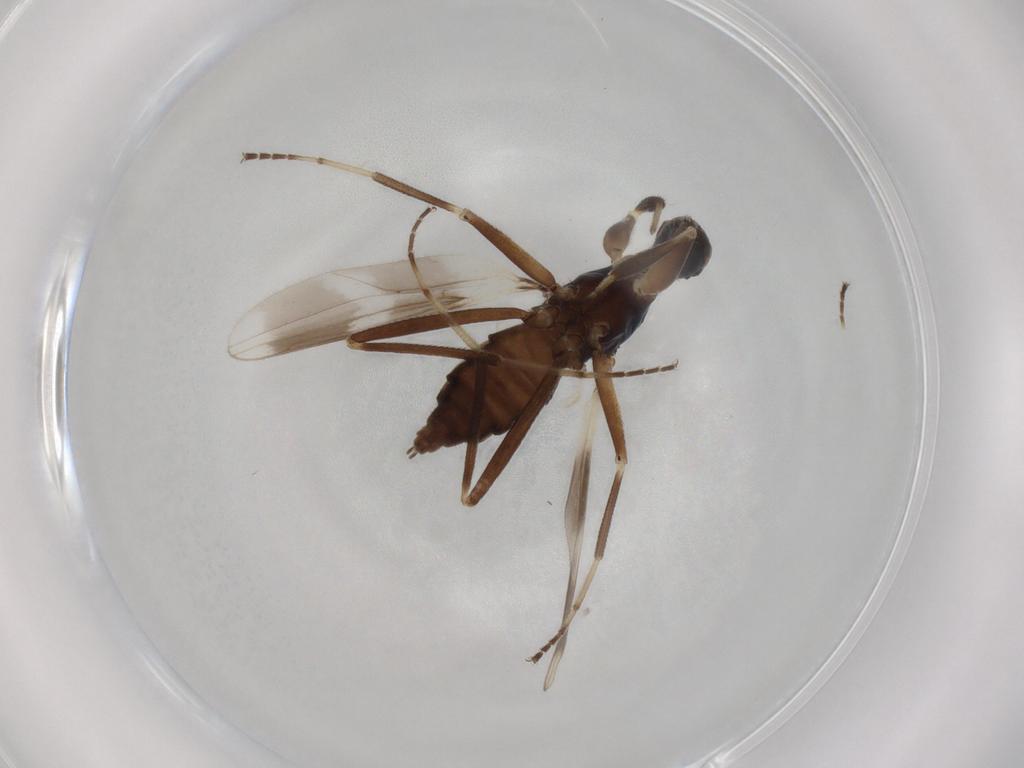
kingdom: Animalia
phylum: Arthropoda
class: Insecta
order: Diptera
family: Hybotidae
